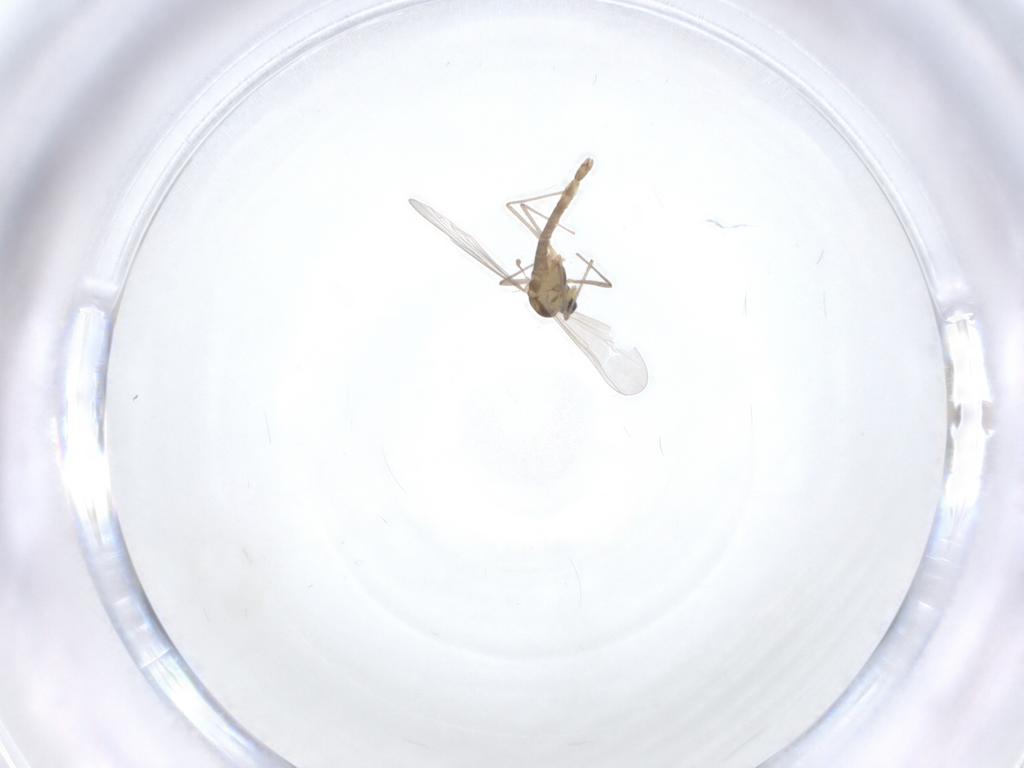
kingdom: Animalia
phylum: Arthropoda
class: Insecta
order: Diptera
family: Chironomidae
